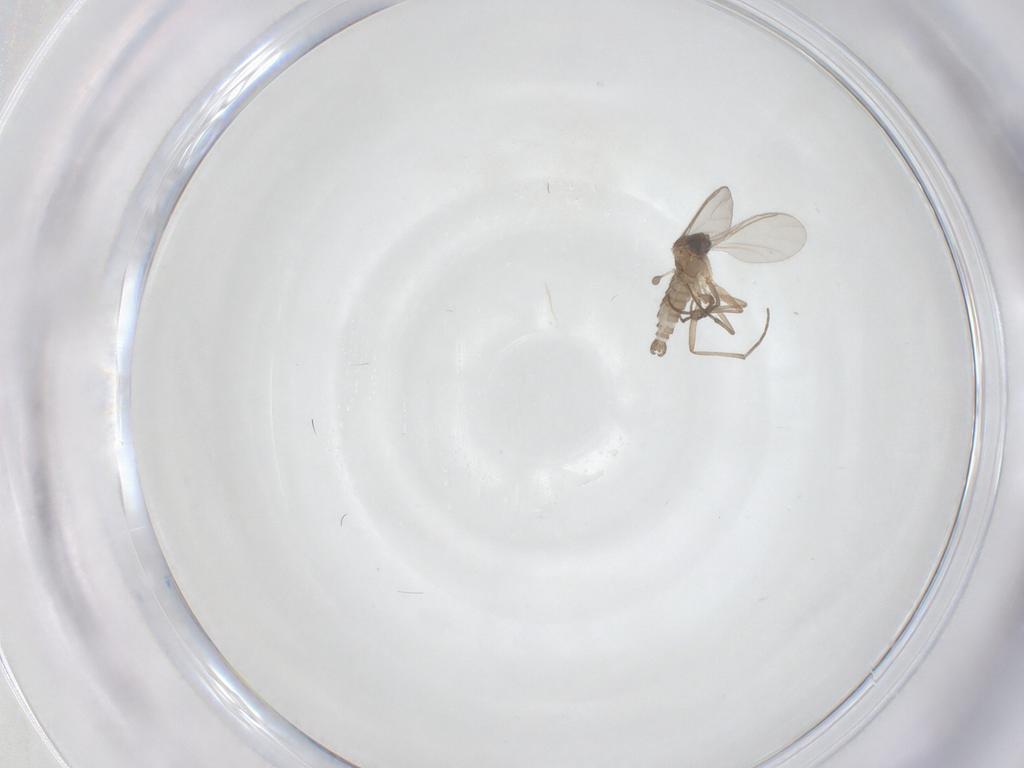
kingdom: Animalia
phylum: Arthropoda
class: Insecta
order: Diptera
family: Sciaridae
